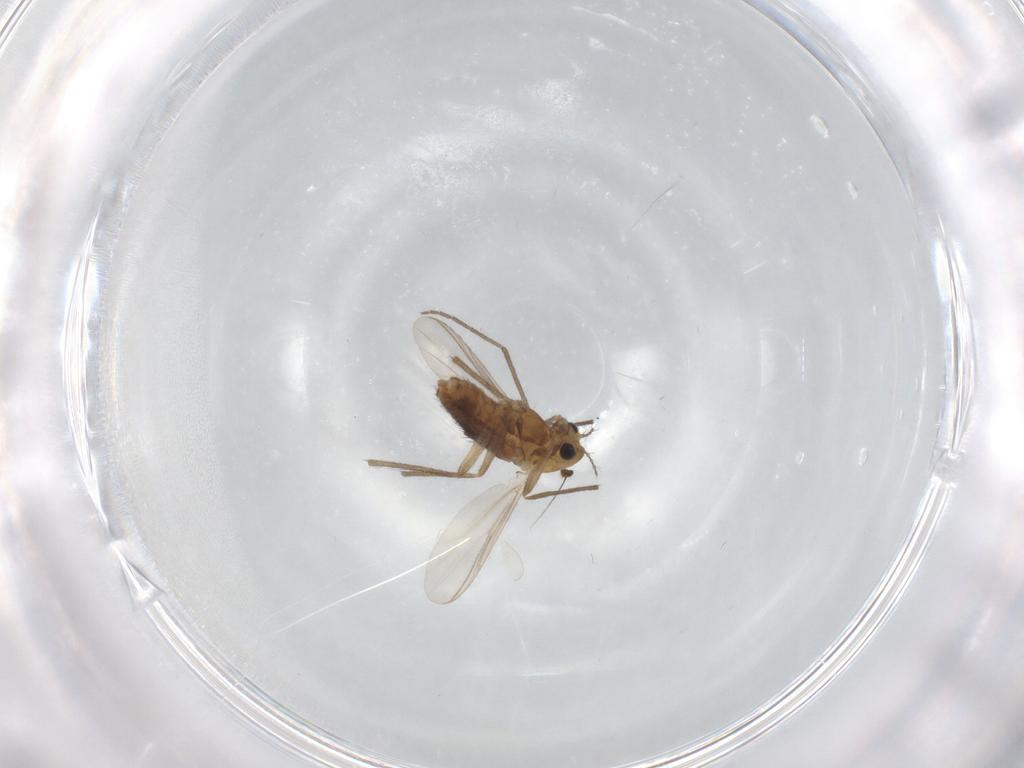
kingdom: Animalia
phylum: Arthropoda
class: Insecta
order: Diptera
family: Chironomidae
